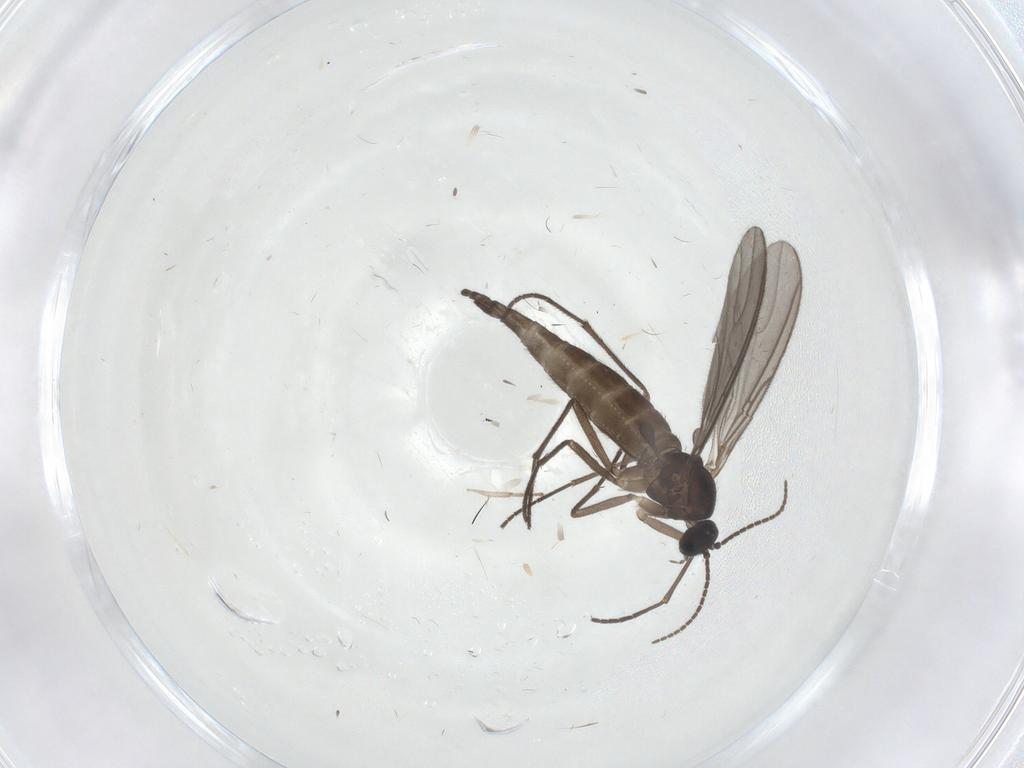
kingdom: Animalia
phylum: Arthropoda
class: Insecta
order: Diptera
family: Sciaridae
